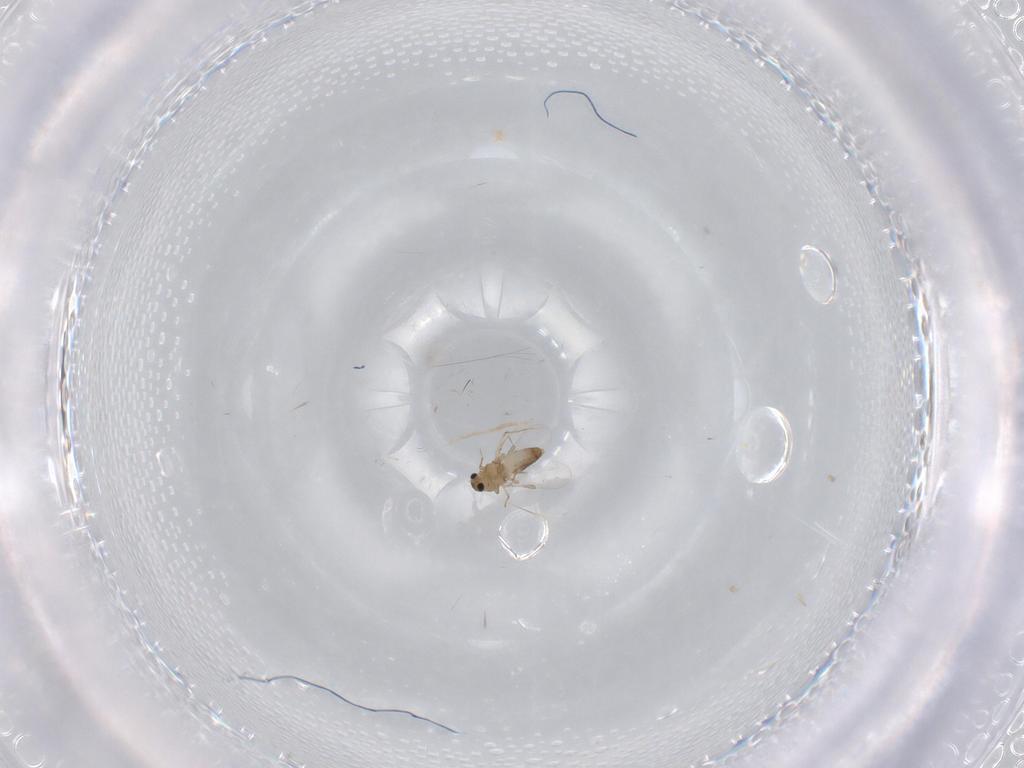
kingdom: Animalia
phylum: Arthropoda
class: Insecta
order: Diptera
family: Chironomidae
